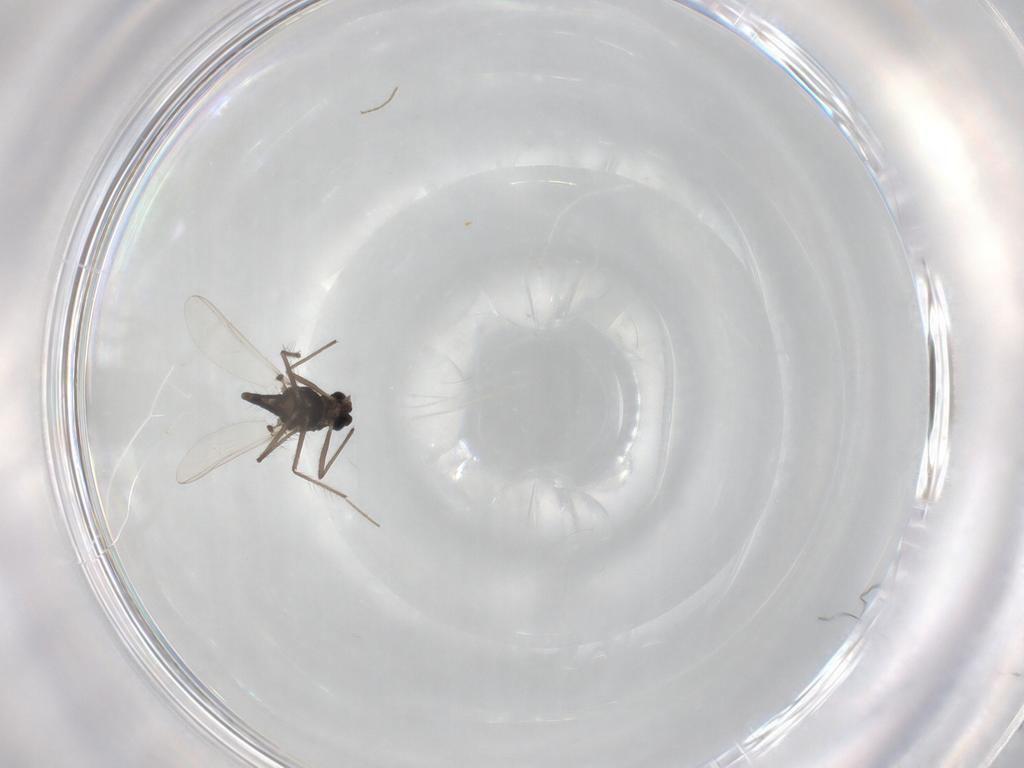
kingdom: Animalia
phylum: Arthropoda
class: Insecta
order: Diptera
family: Chironomidae
